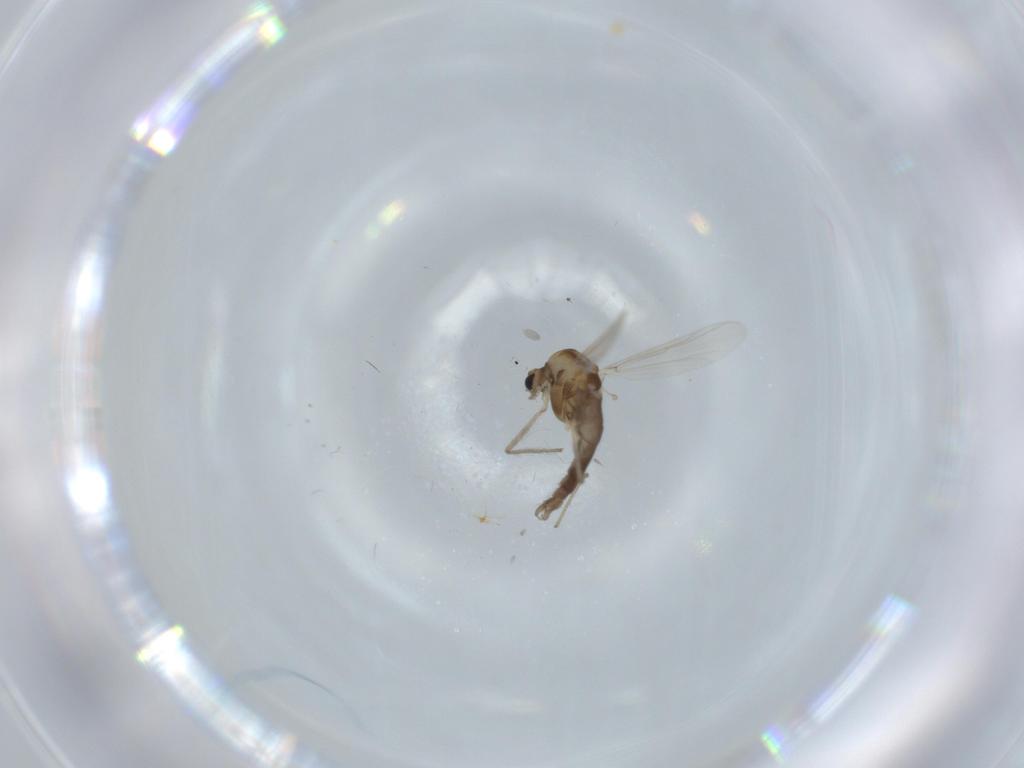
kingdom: Animalia
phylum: Arthropoda
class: Insecta
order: Diptera
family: Chironomidae
